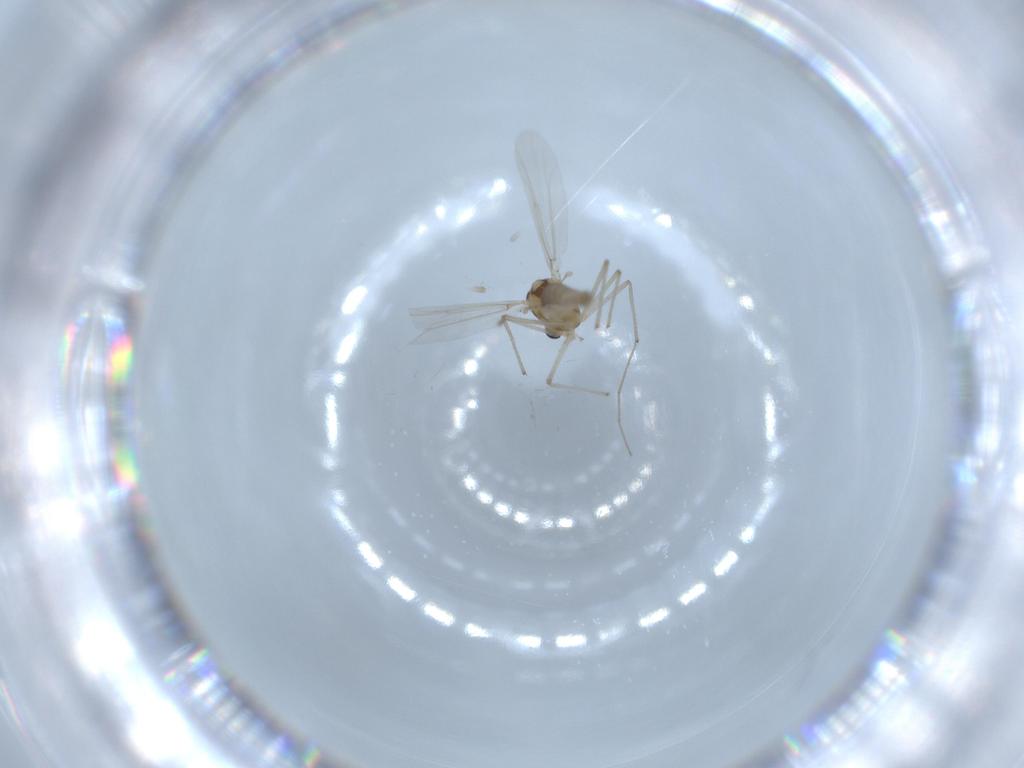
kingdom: Animalia
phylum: Arthropoda
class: Insecta
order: Diptera
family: Chironomidae
